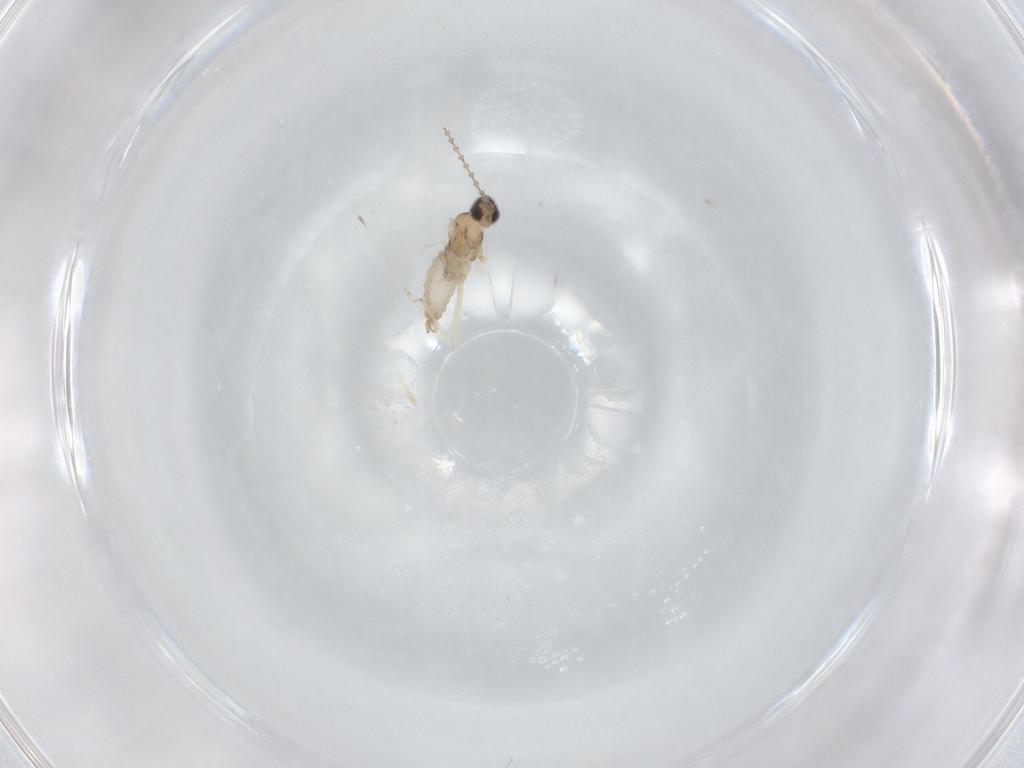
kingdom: Animalia
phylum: Arthropoda
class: Insecta
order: Diptera
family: Cecidomyiidae
